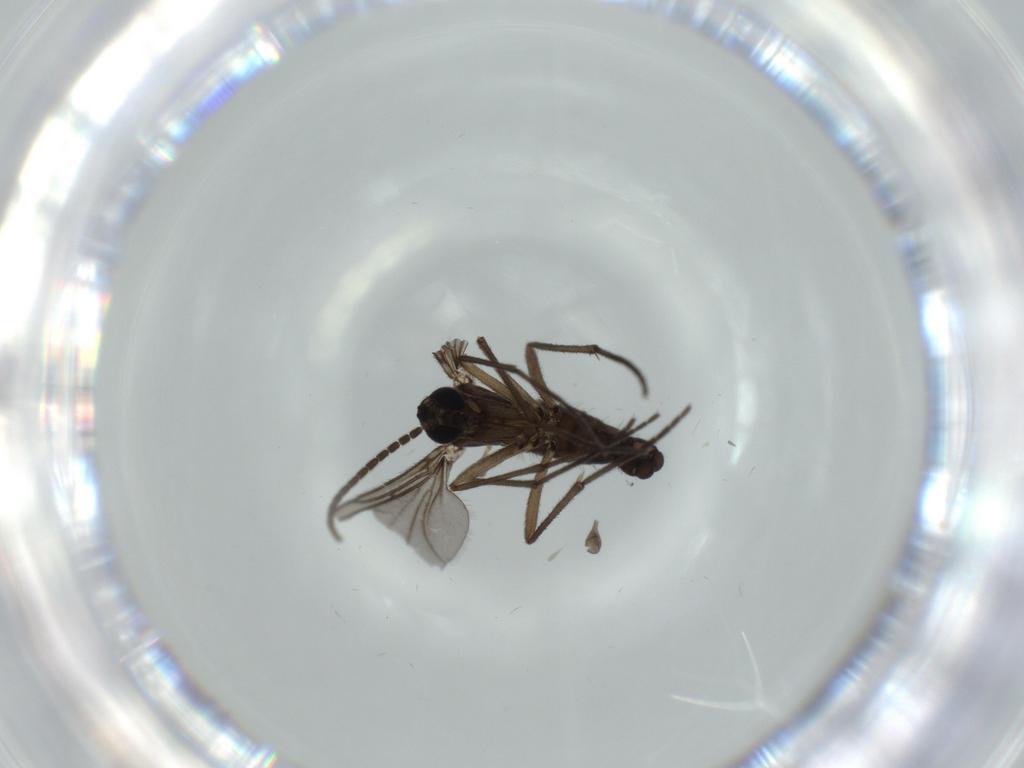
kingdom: Animalia
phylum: Arthropoda
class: Insecta
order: Diptera
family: Sciaridae
